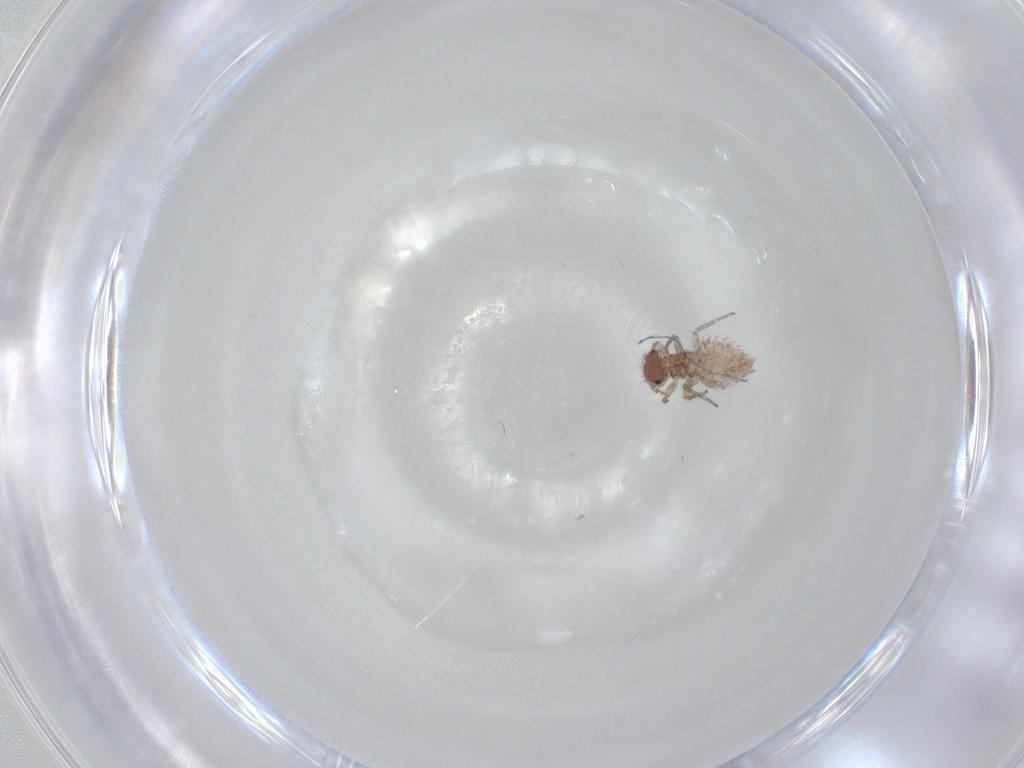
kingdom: Animalia
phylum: Arthropoda
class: Insecta
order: Psocodea
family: Caeciliusidae
